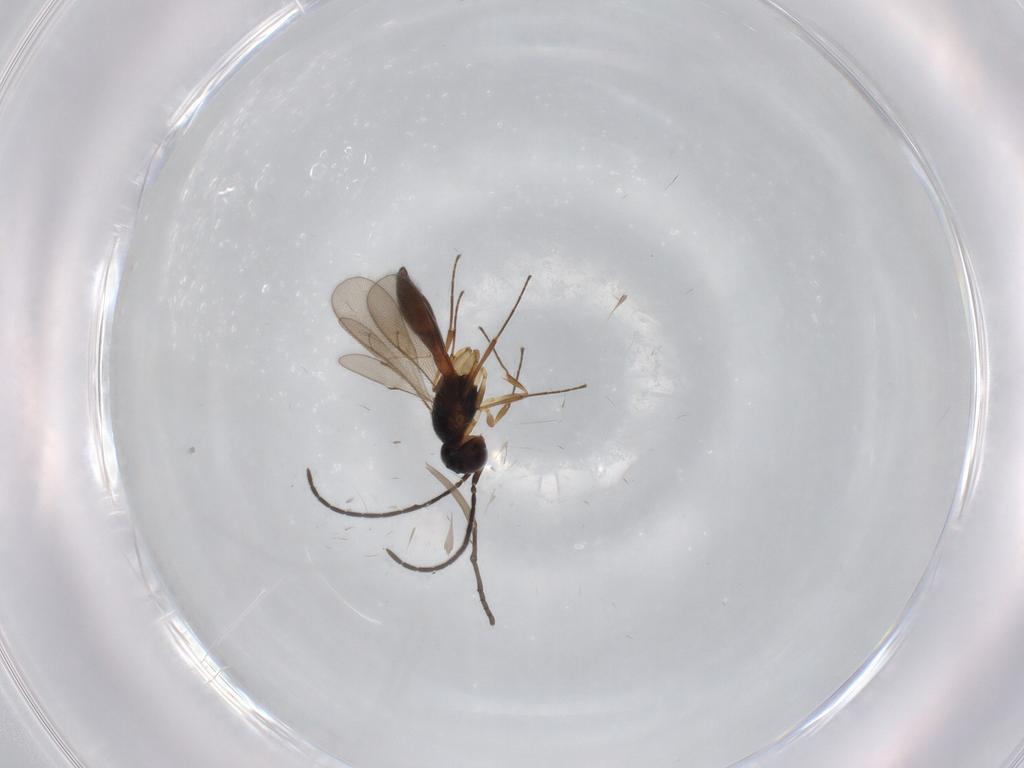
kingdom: Animalia
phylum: Arthropoda
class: Insecta
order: Hymenoptera
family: Scelionidae
